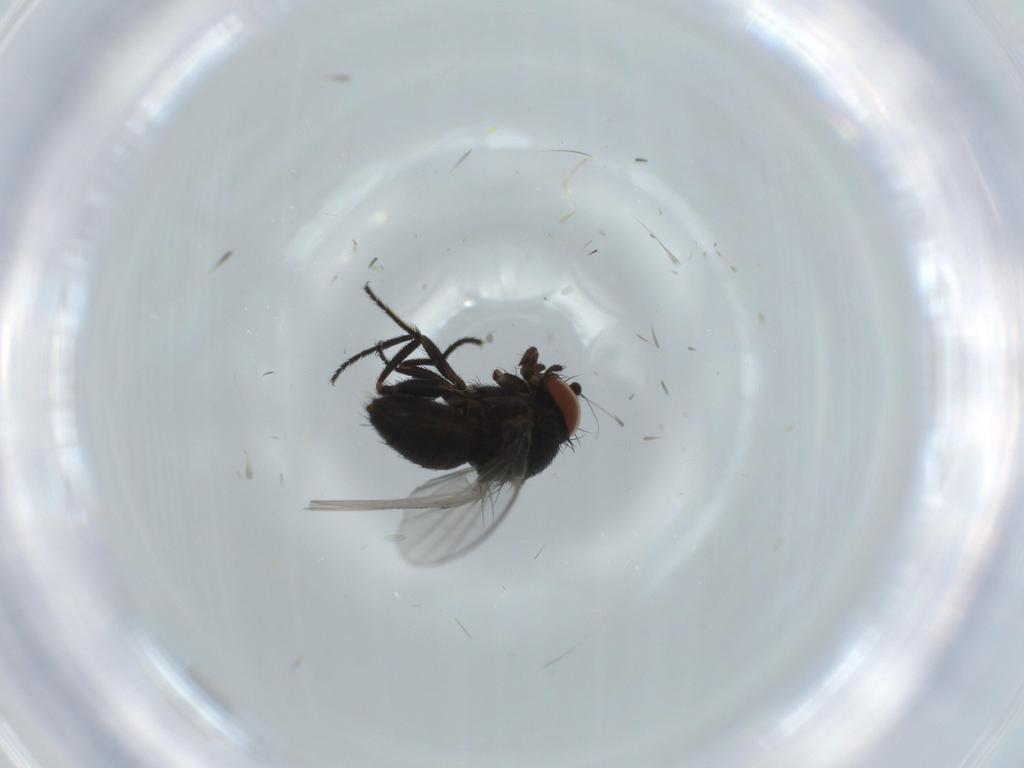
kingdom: Animalia
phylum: Arthropoda
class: Insecta
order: Diptera
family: Milichiidae
